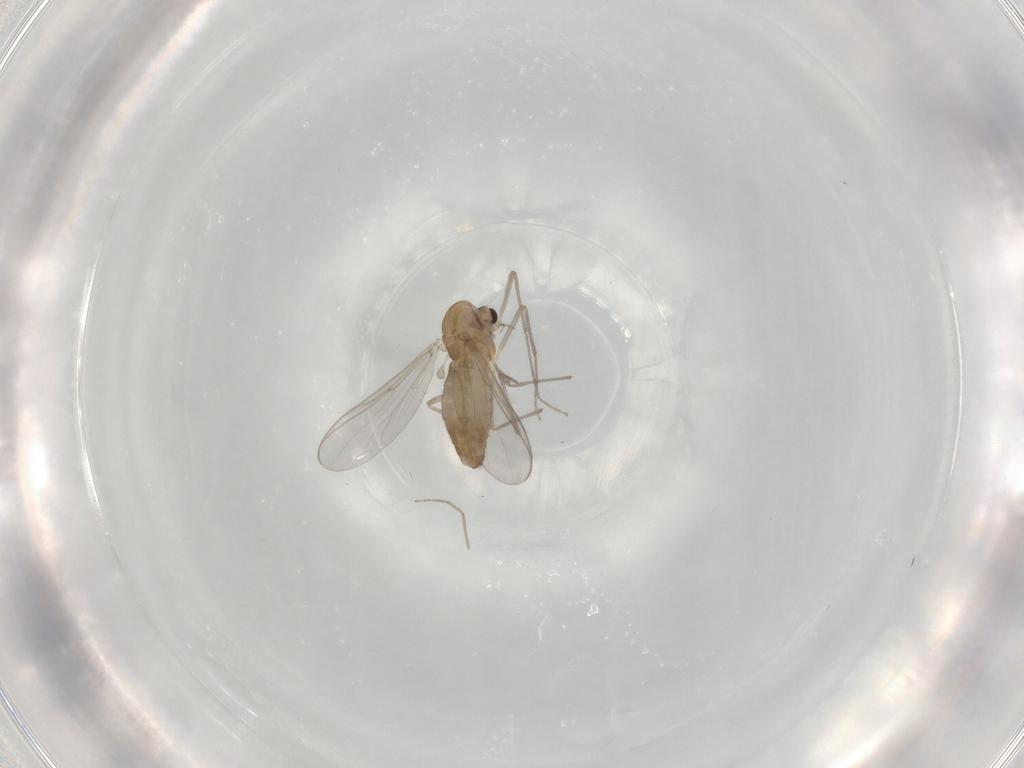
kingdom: Animalia
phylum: Arthropoda
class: Insecta
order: Diptera
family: Chironomidae
